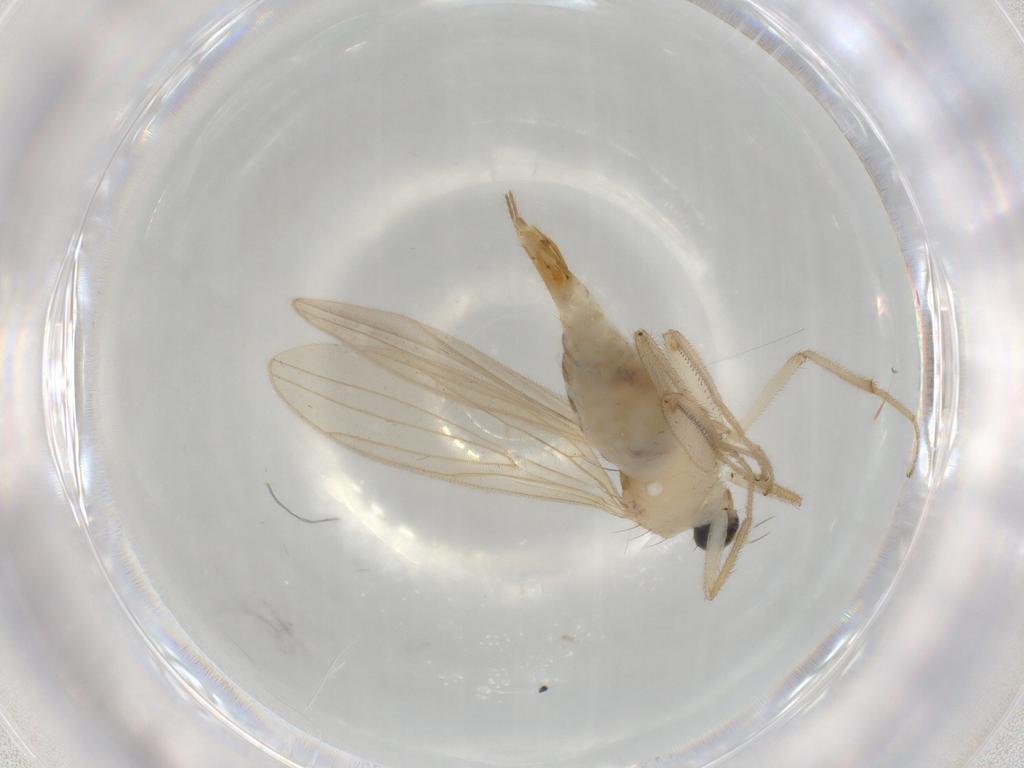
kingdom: Animalia
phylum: Arthropoda
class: Insecta
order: Diptera
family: Hybotidae
